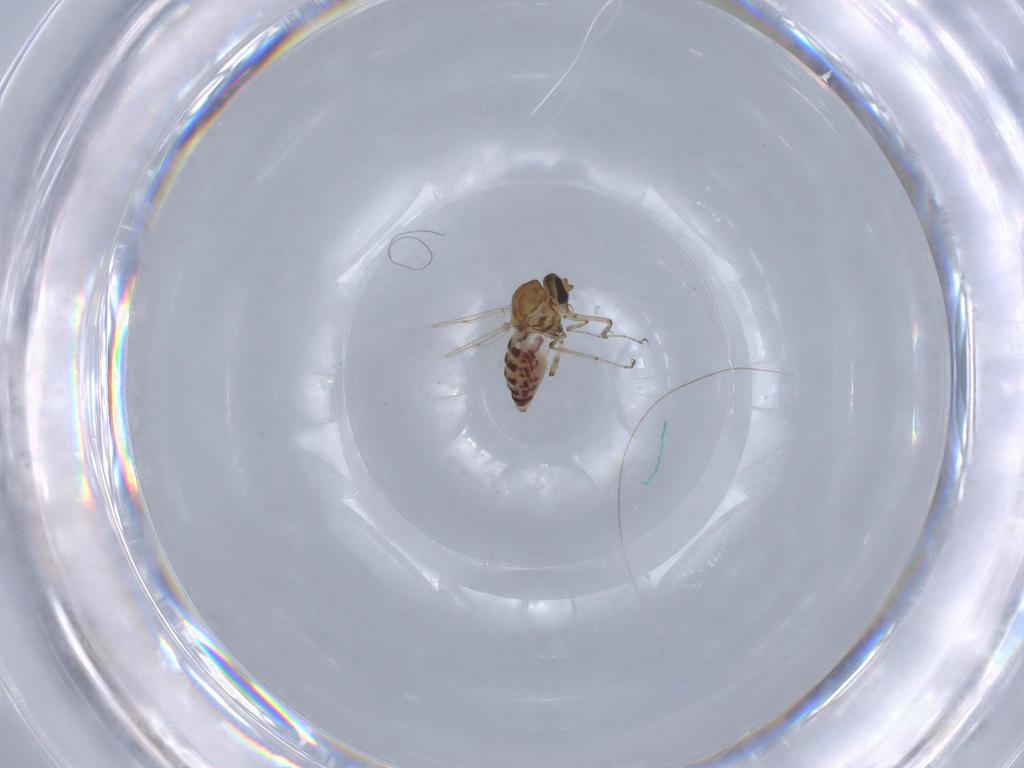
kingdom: Animalia
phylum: Arthropoda
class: Insecta
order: Diptera
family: Ceratopogonidae
